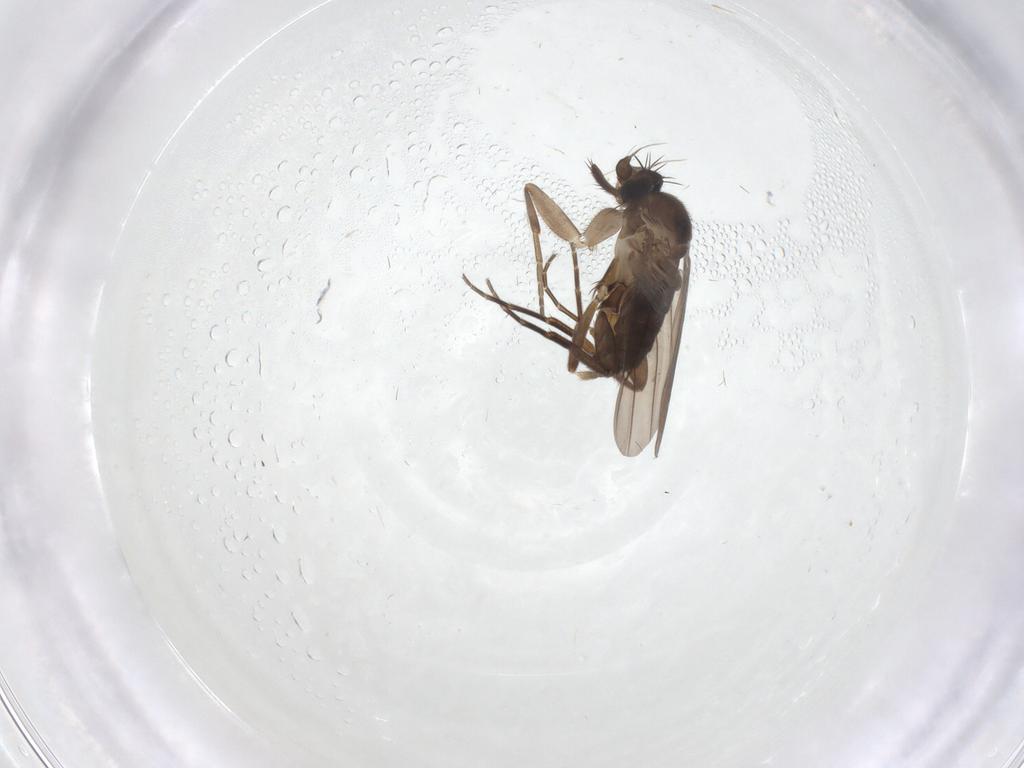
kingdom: Animalia
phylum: Arthropoda
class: Insecta
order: Diptera
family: Phoridae
